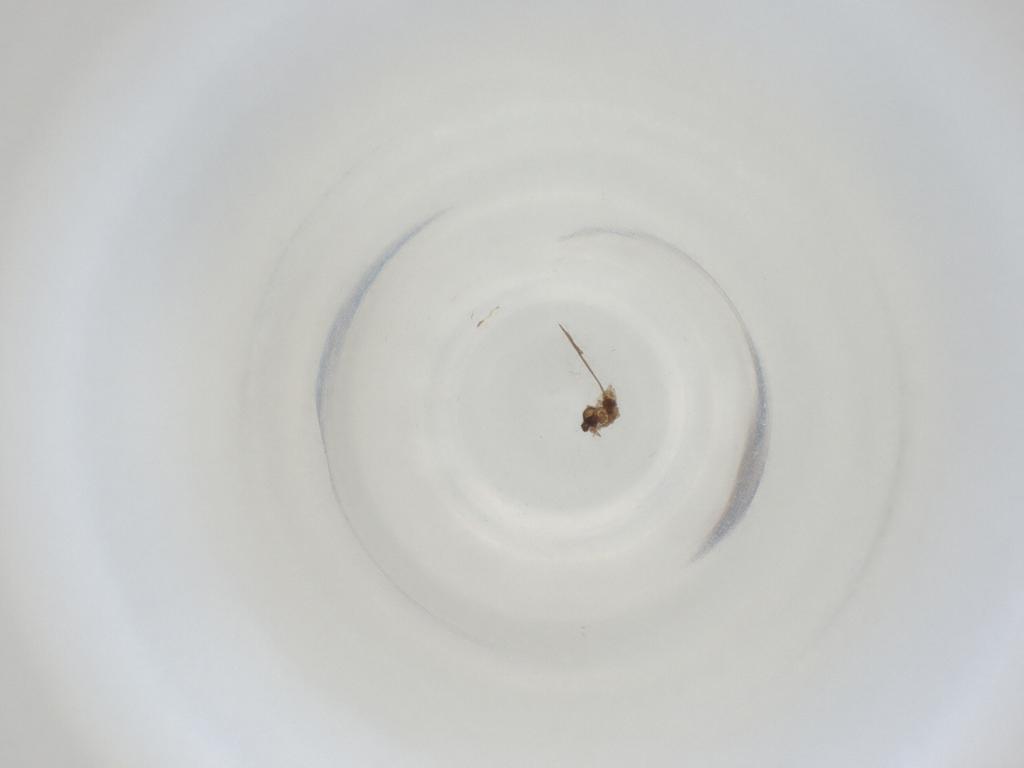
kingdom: Animalia
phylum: Arthropoda
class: Insecta
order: Diptera
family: Cecidomyiidae
